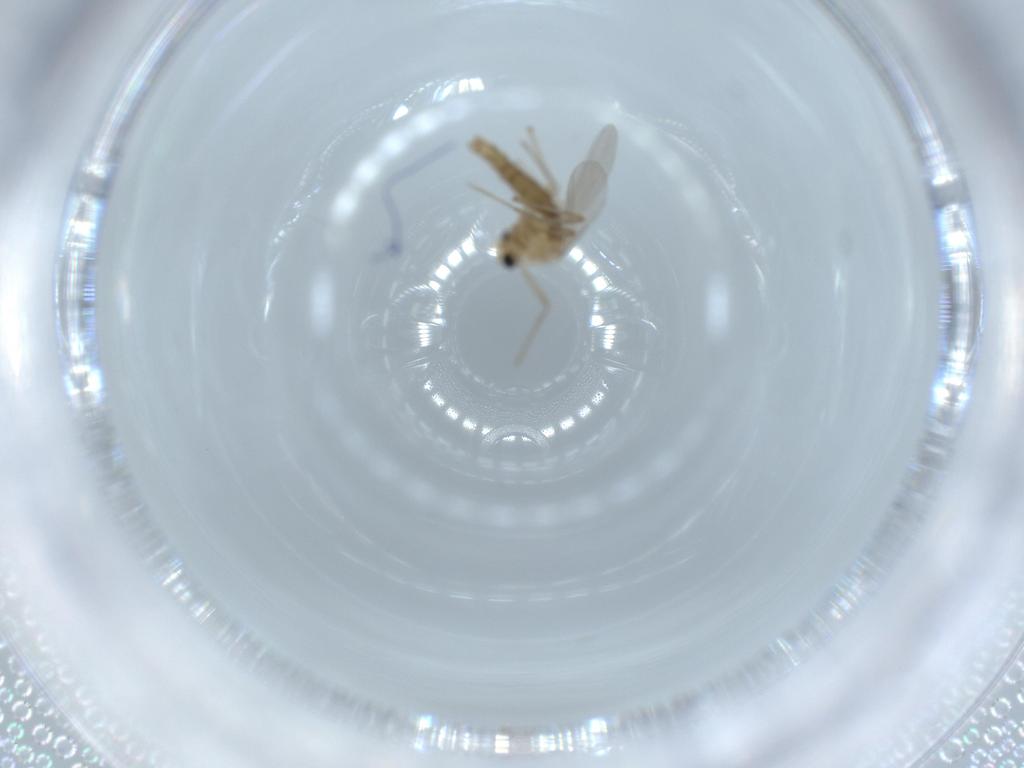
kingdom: Animalia
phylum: Arthropoda
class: Insecta
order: Diptera
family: Chironomidae
